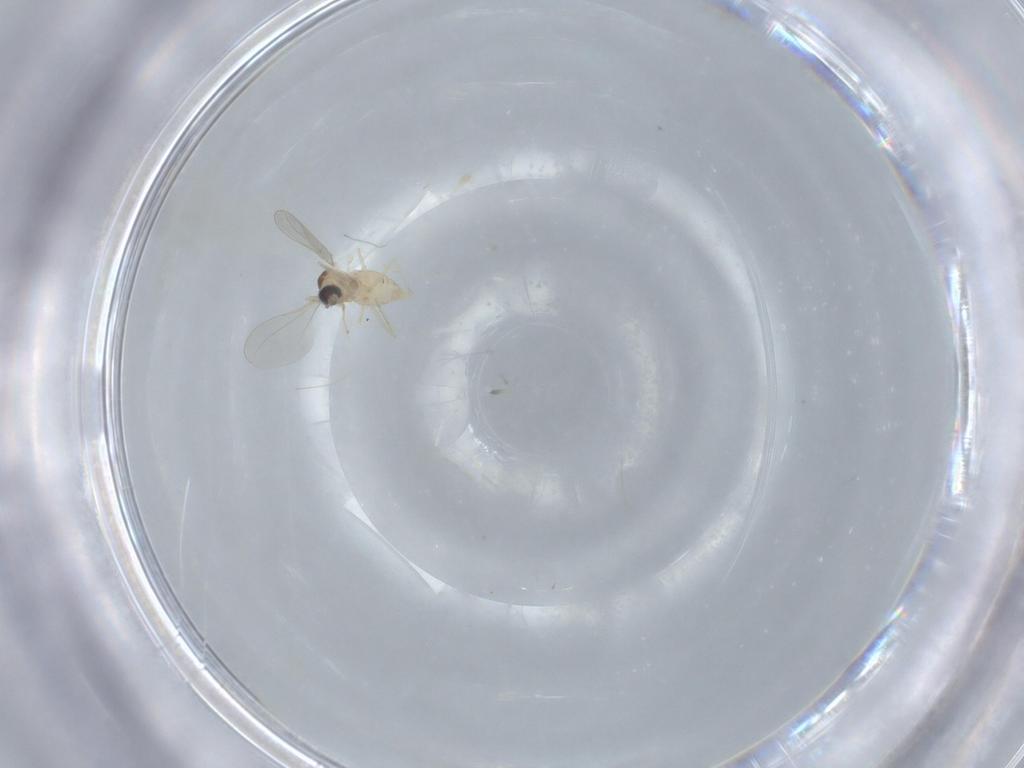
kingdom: Animalia
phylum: Arthropoda
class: Insecta
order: Diptera
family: Cecidomyiidae
